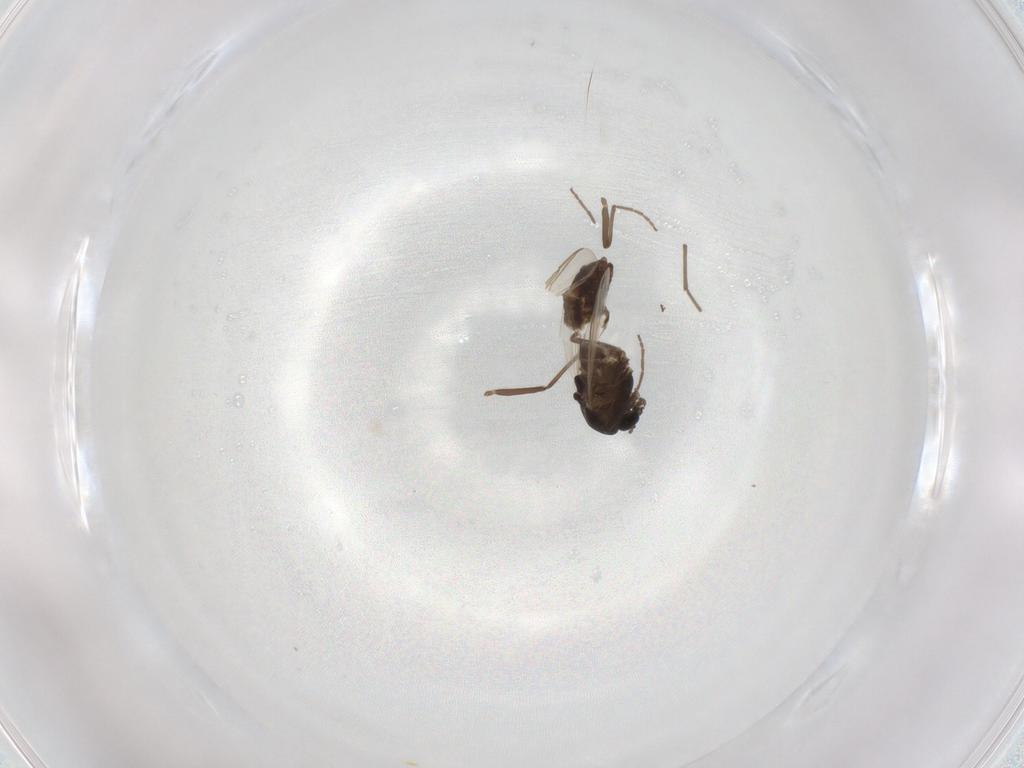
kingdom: Animalia
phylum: Arthropoda
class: Insecta
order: Diptera
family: Chironomidae
